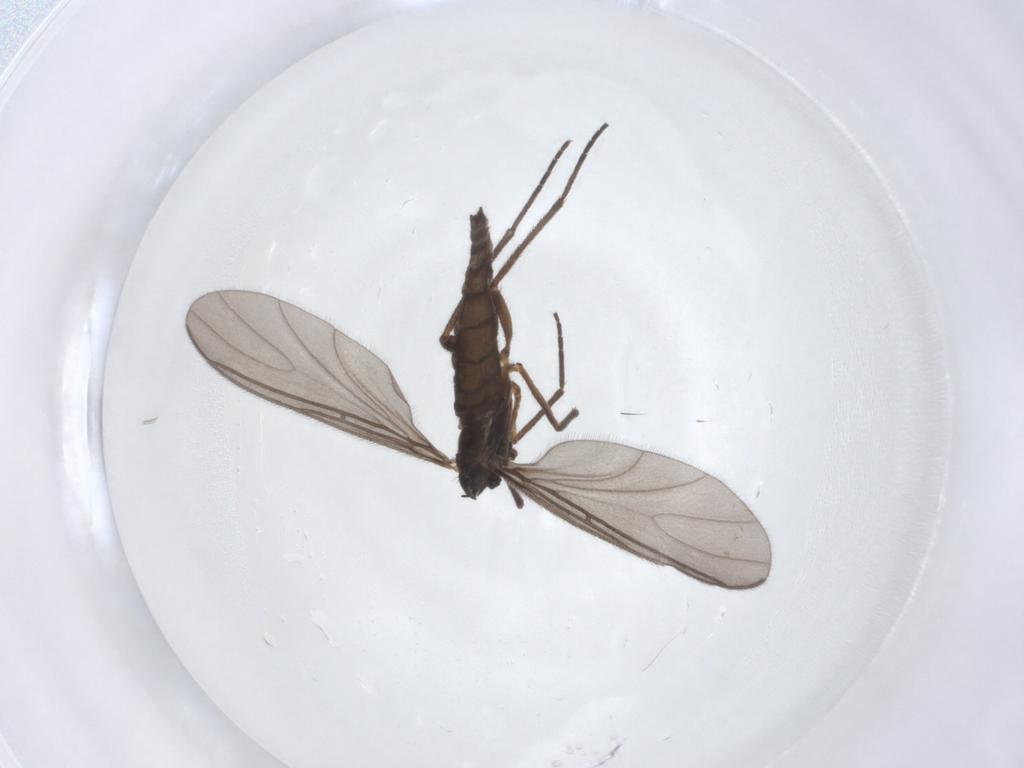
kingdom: Animalia
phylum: Arthropoda
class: Insecta
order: Diptera
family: Sciaridae
